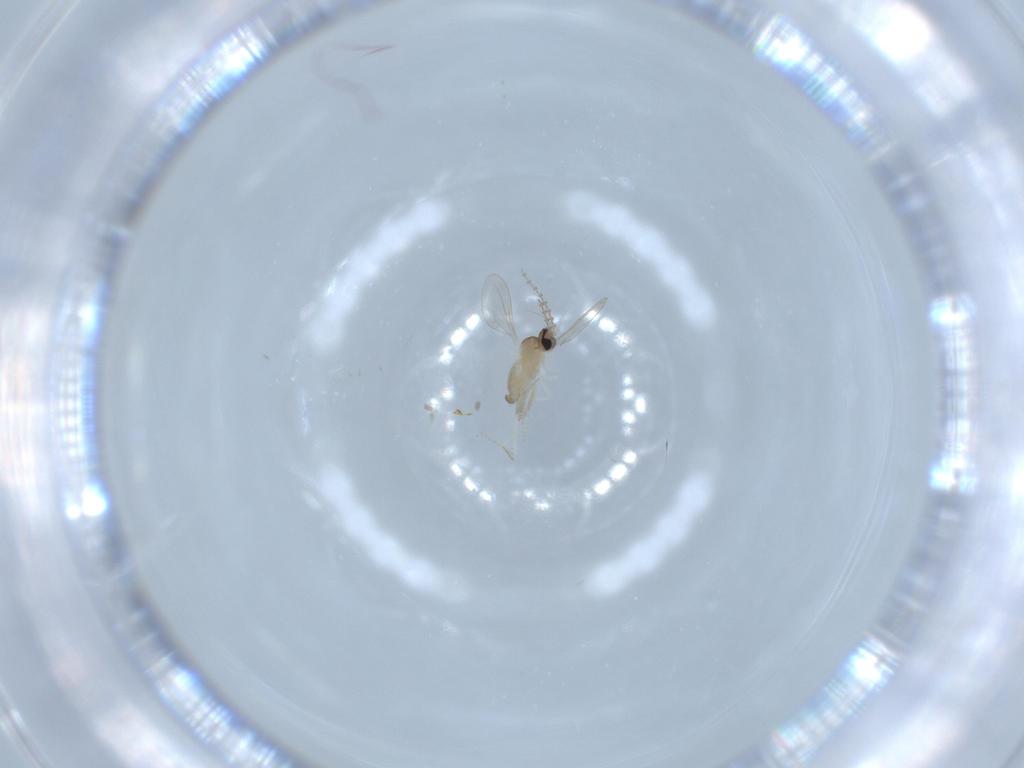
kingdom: Animalia
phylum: Arthropoda
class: Insecta
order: Diptera
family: Cecidomyiidae
